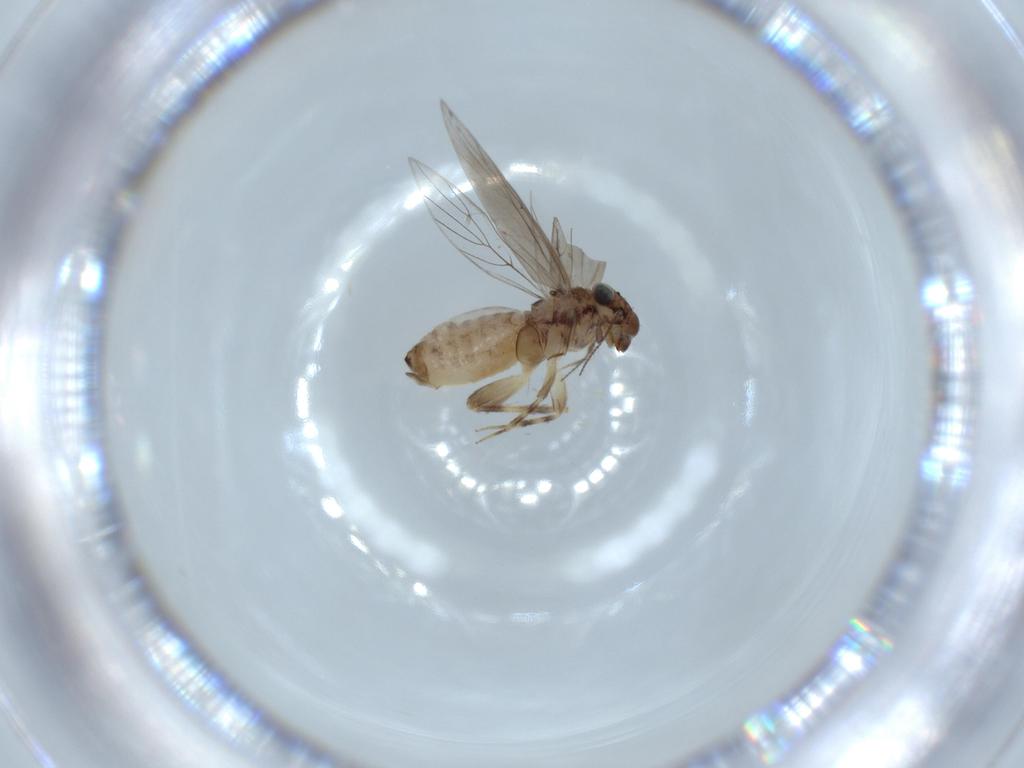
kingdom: Animalia
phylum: Arthropoda
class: Insecta
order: Psocodea
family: Lepidopsocidae
